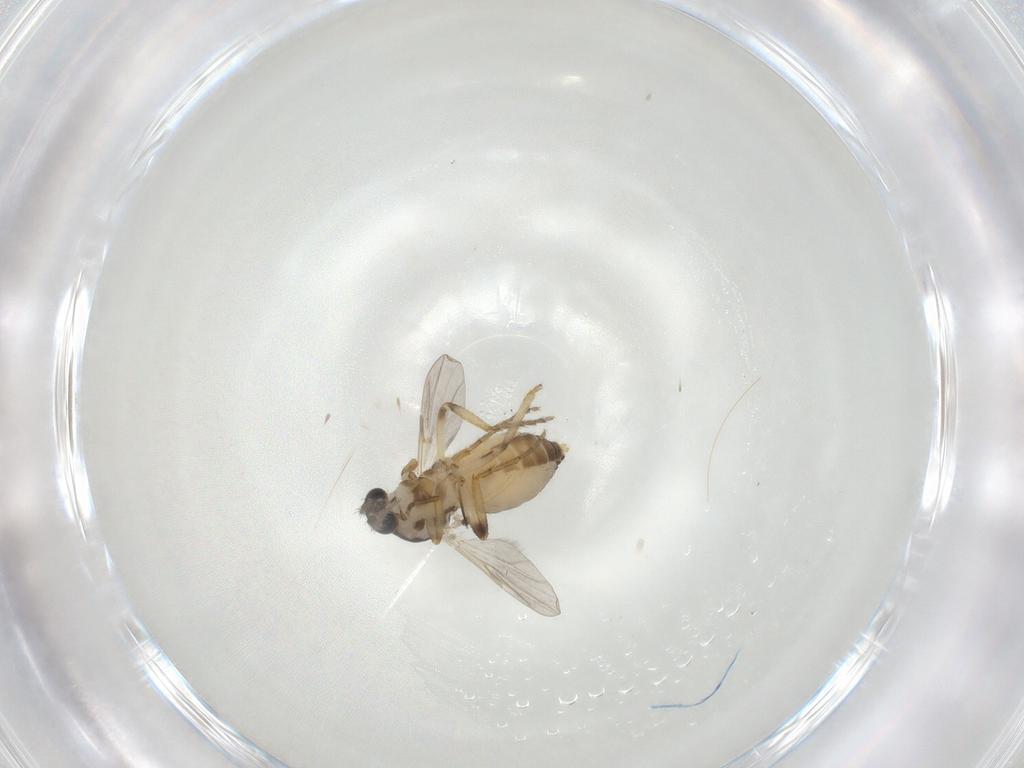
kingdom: Animalia
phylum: Arthropoda
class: Insecta
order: Diptera
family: Ceratopogonidae
